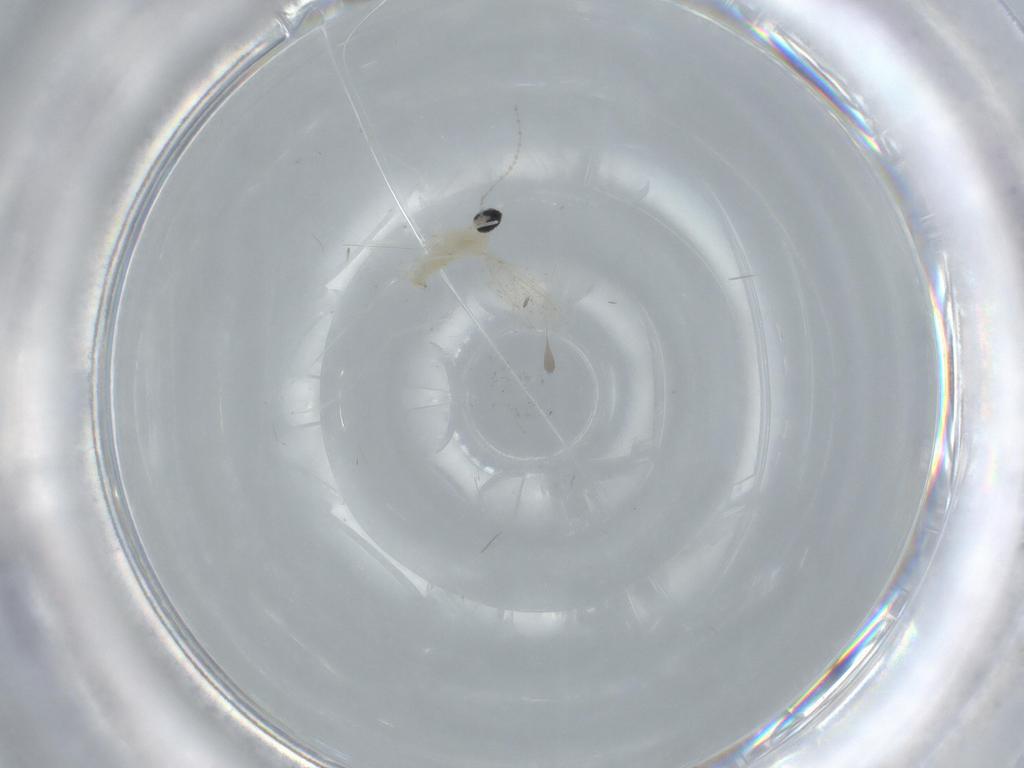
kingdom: Animalia
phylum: Arthropoda
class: Insecta
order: Diptera
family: Cecidomyiidae
